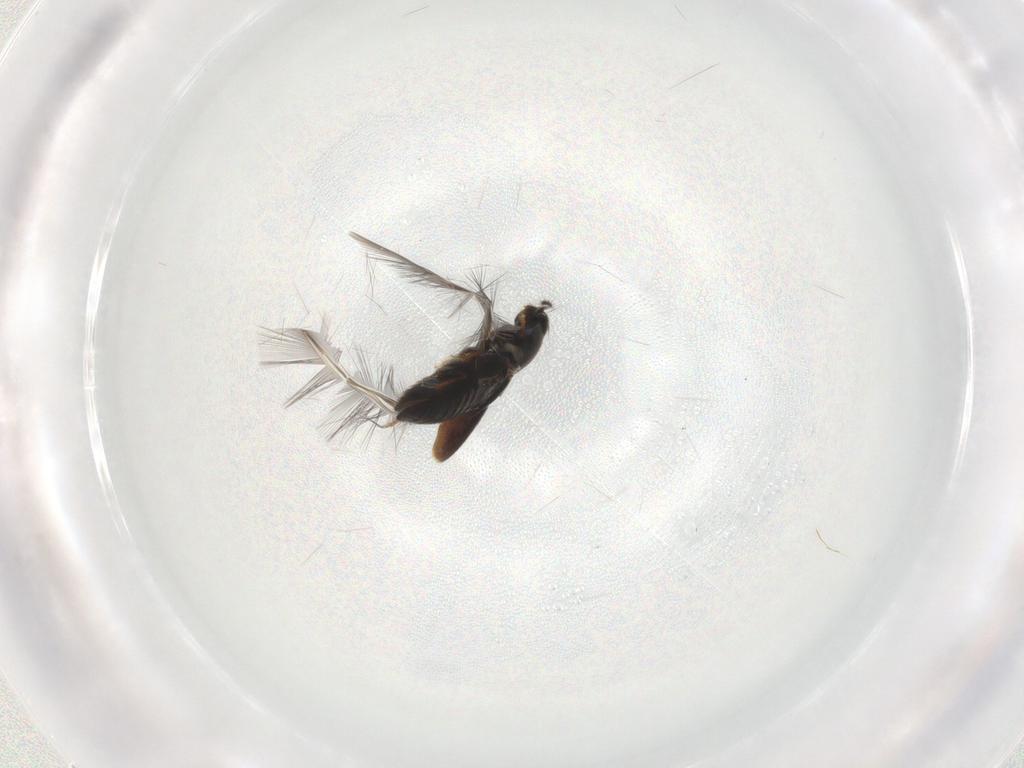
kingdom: Animalia
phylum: Arthropoda
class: Insecta
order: Coleoptera
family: Ptiliidae
